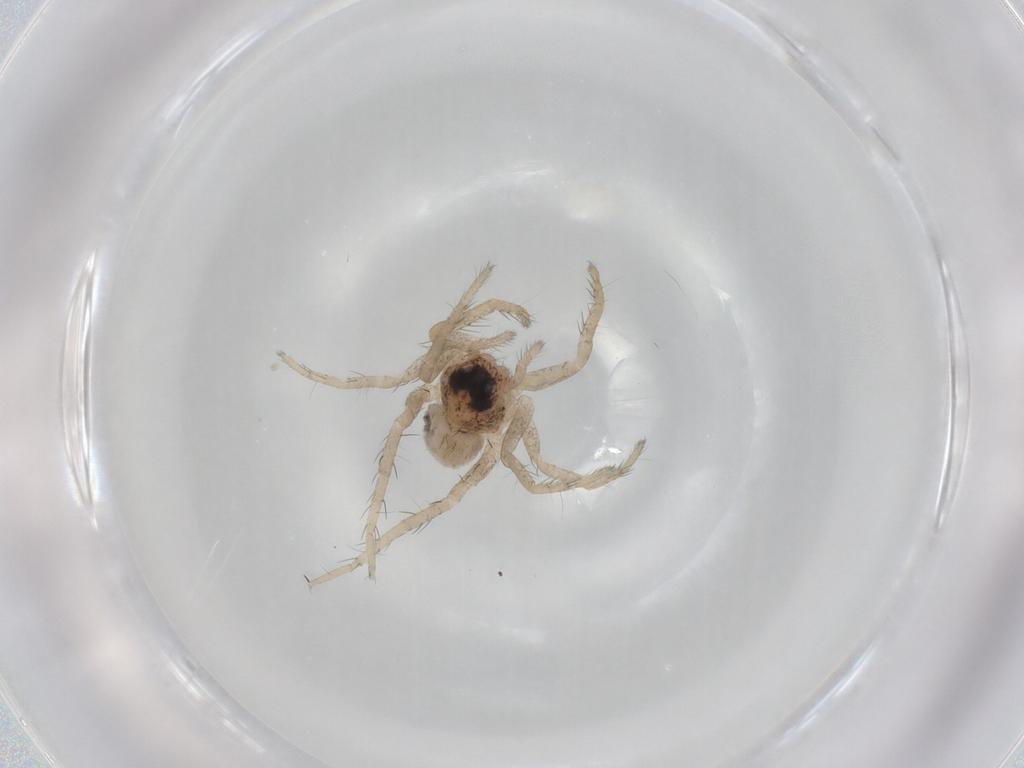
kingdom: Animalia
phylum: Arthropoda
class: Arachnida
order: Araneae
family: Lycosidae
